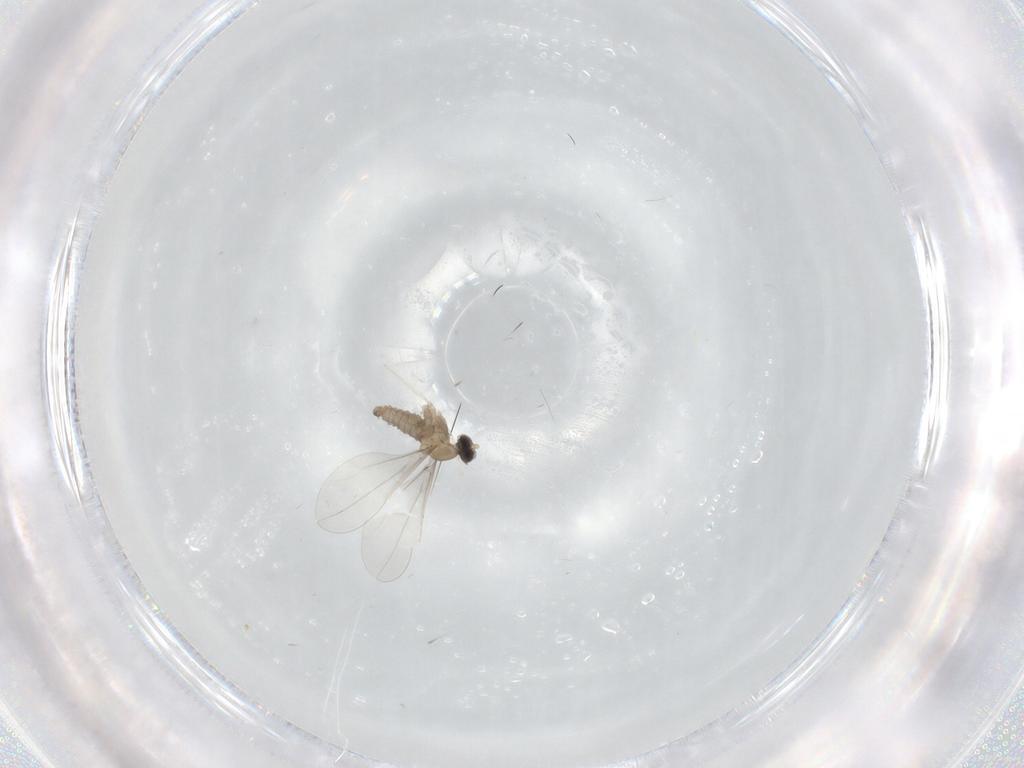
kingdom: Animalia
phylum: Arthropoda
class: Insecta
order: Diptera
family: Cecidomyiidae
